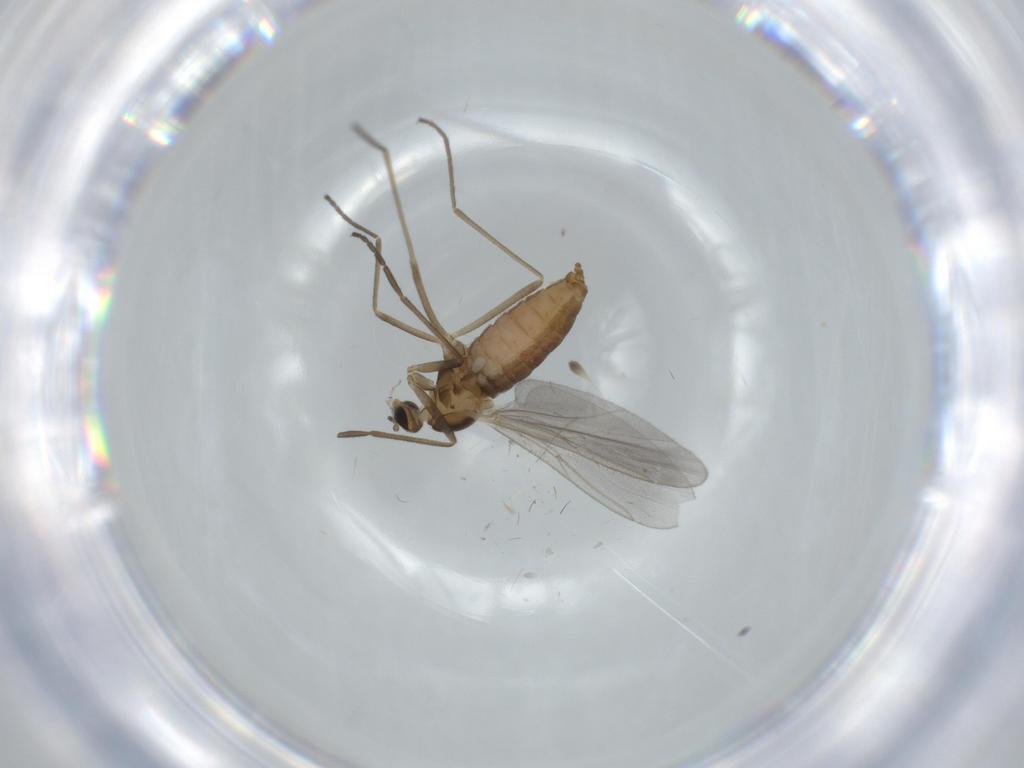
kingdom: Animalia
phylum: Arthropoda
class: Insecta
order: Diptera
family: Cecidomyiidae
